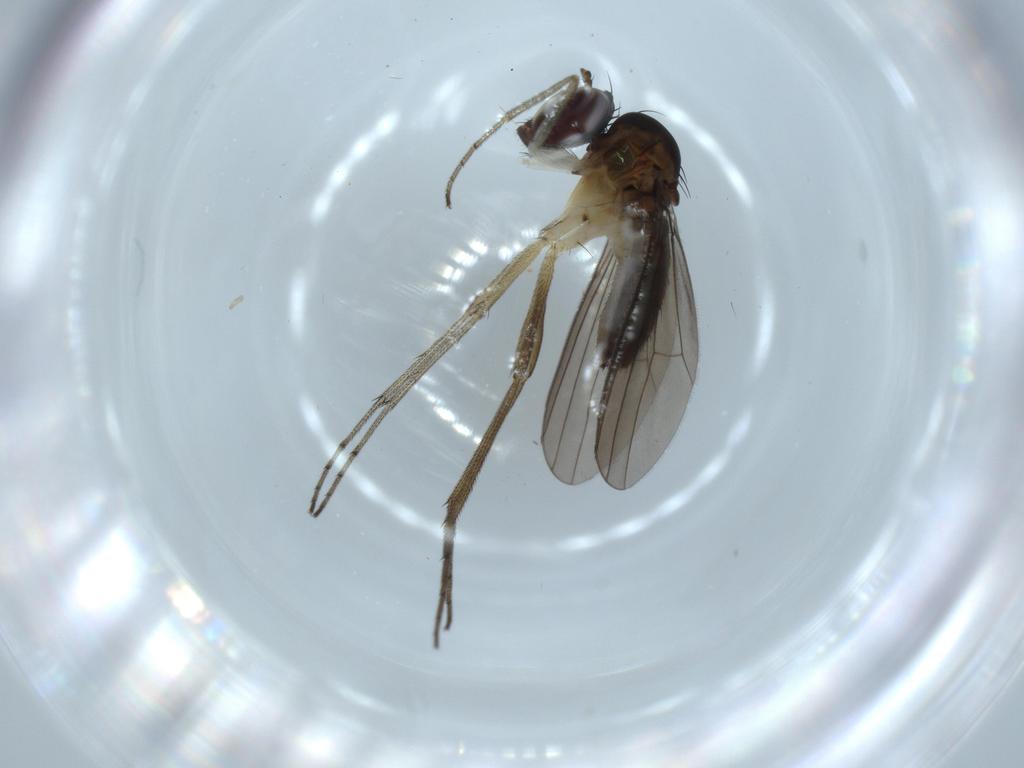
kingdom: Animalia
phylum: Arthropoda
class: Insecta
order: Diptera
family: Dolichopodidae
